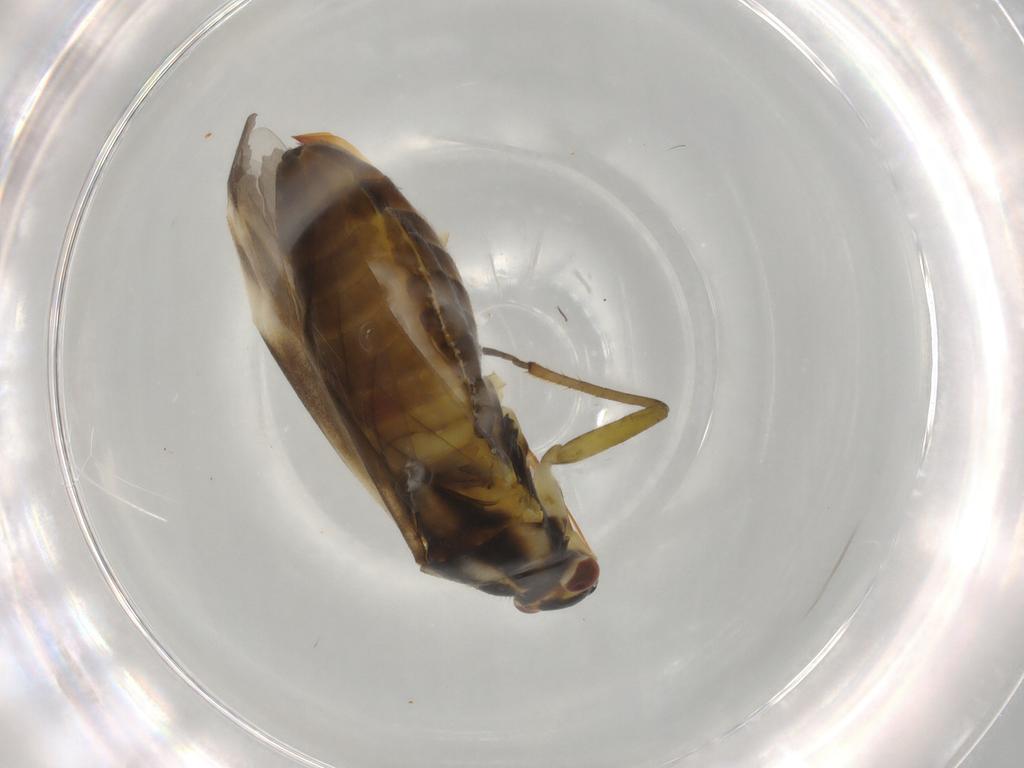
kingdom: Animalia
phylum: Arthropoda
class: Insecta
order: Hemiptera
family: Miridae
